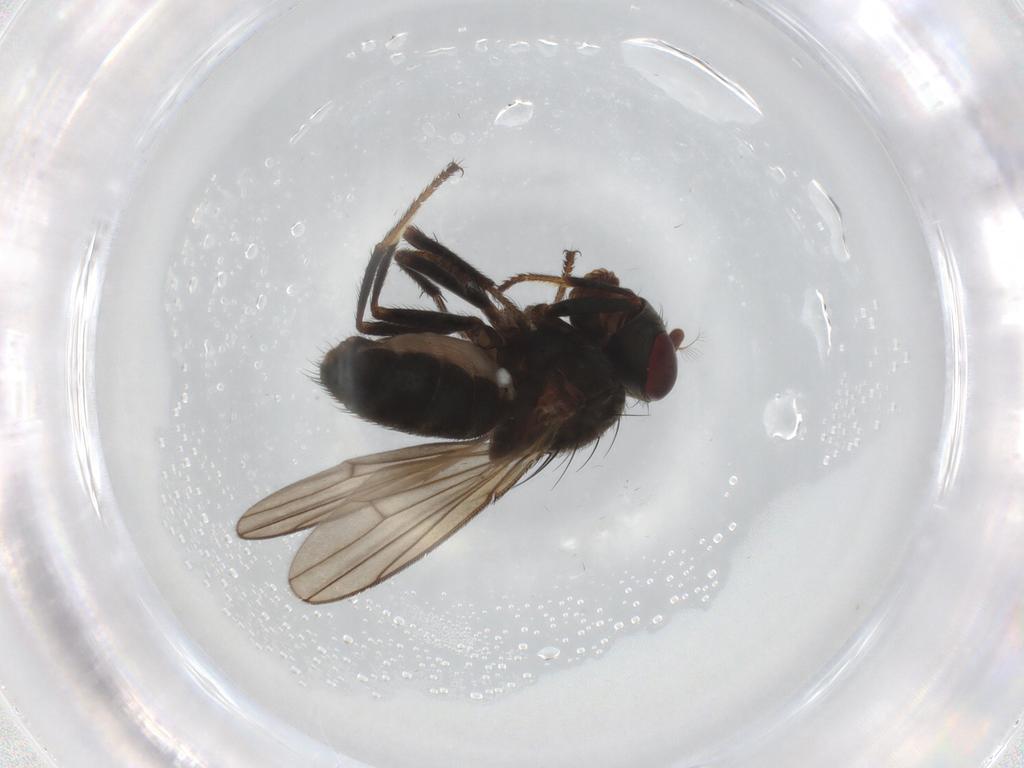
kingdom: Animalia
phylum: Arthropoda
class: Insecta
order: Diptera
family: Ephydridae
